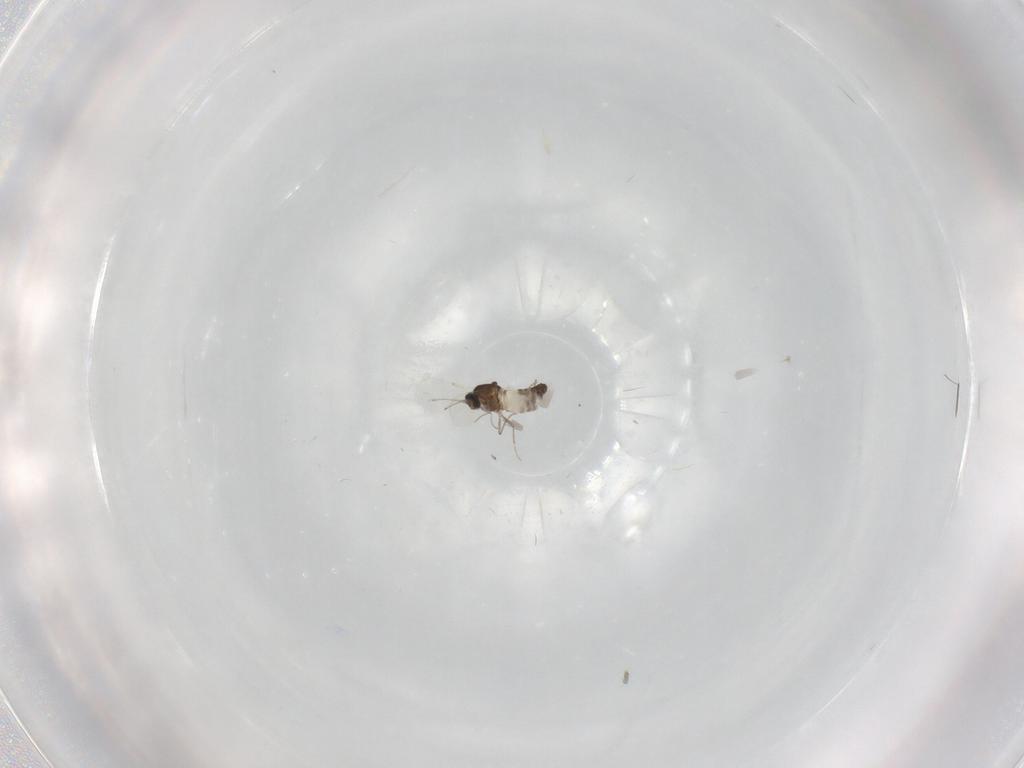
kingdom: Animalia
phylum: Arthropoda
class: Insecta
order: Diptera
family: Ceratopogonidae
